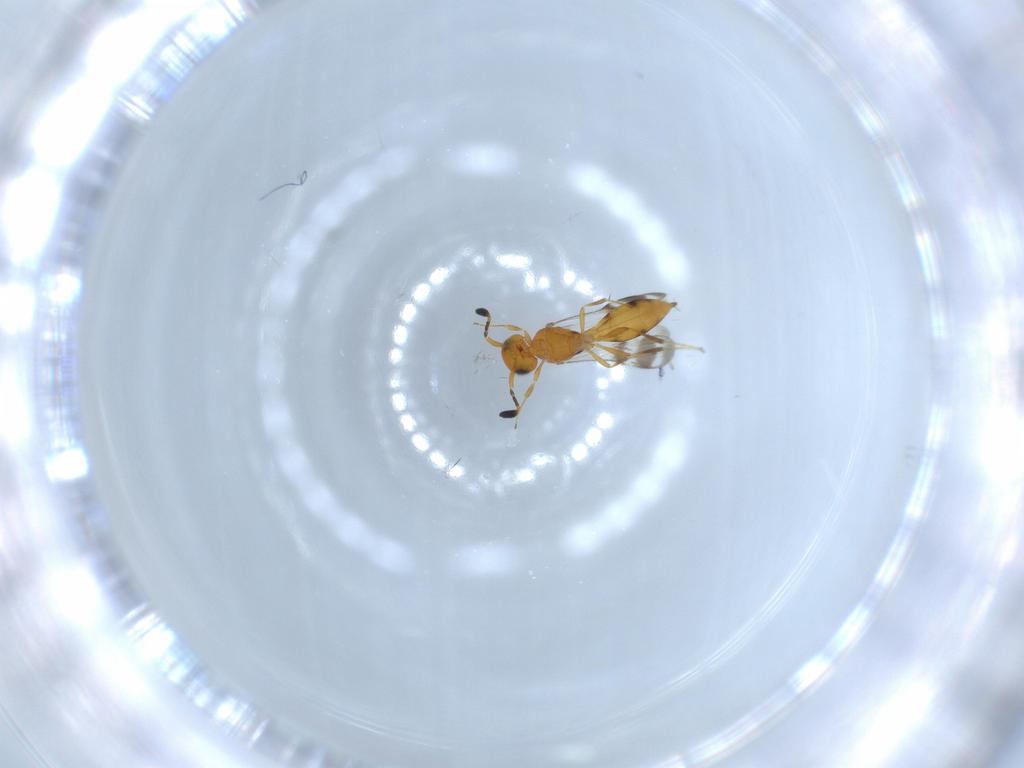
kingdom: Animalia
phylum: Arthropoda
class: Insecta
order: Hymenoptera
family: Scelionidae
